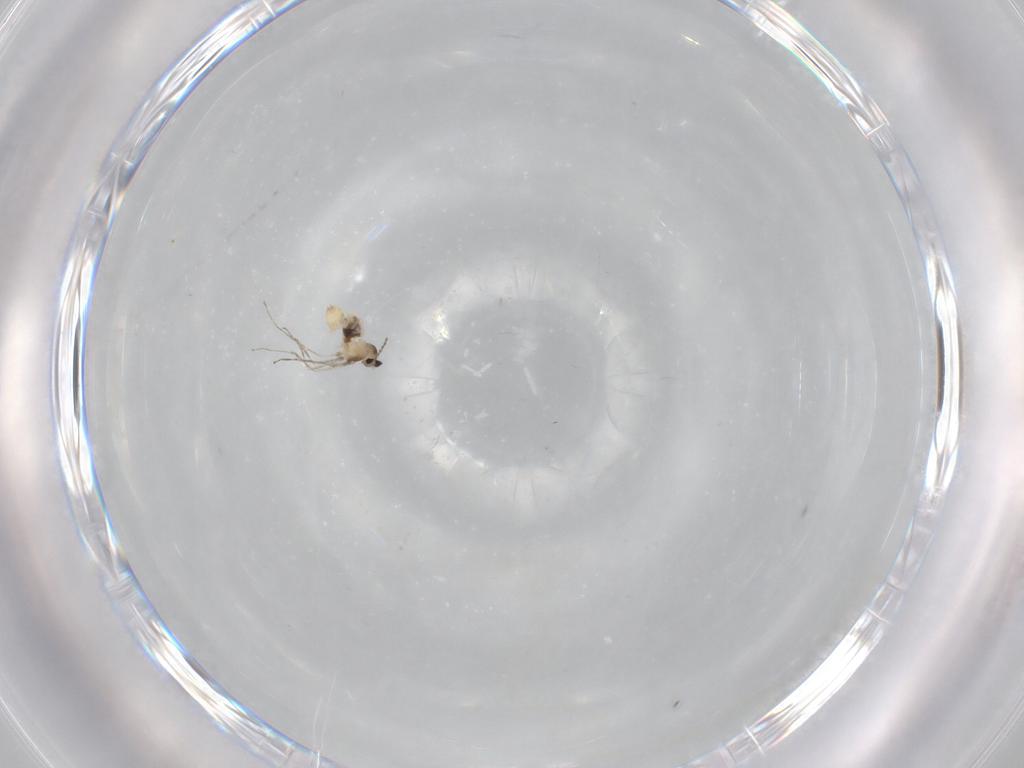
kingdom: Animalia
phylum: Arthropoda
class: Insecta
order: Diptera
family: Cecidomyiidae
